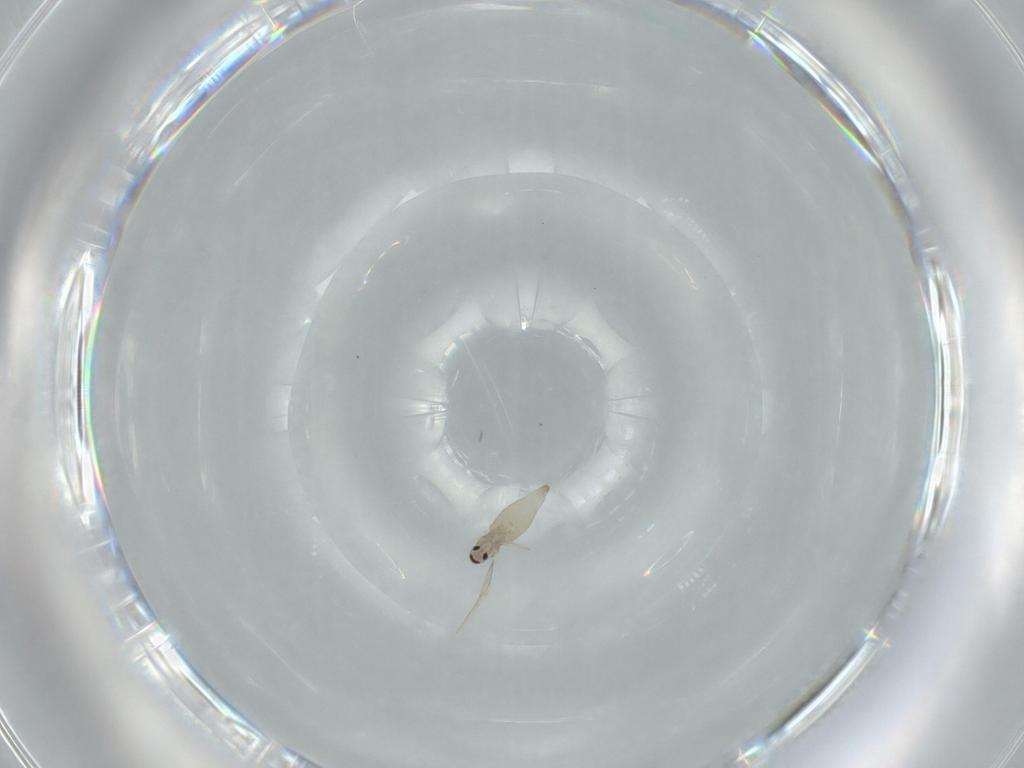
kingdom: Animalia
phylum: Arthropoda
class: Insecta
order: Diptera
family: Cecidomyiidae
